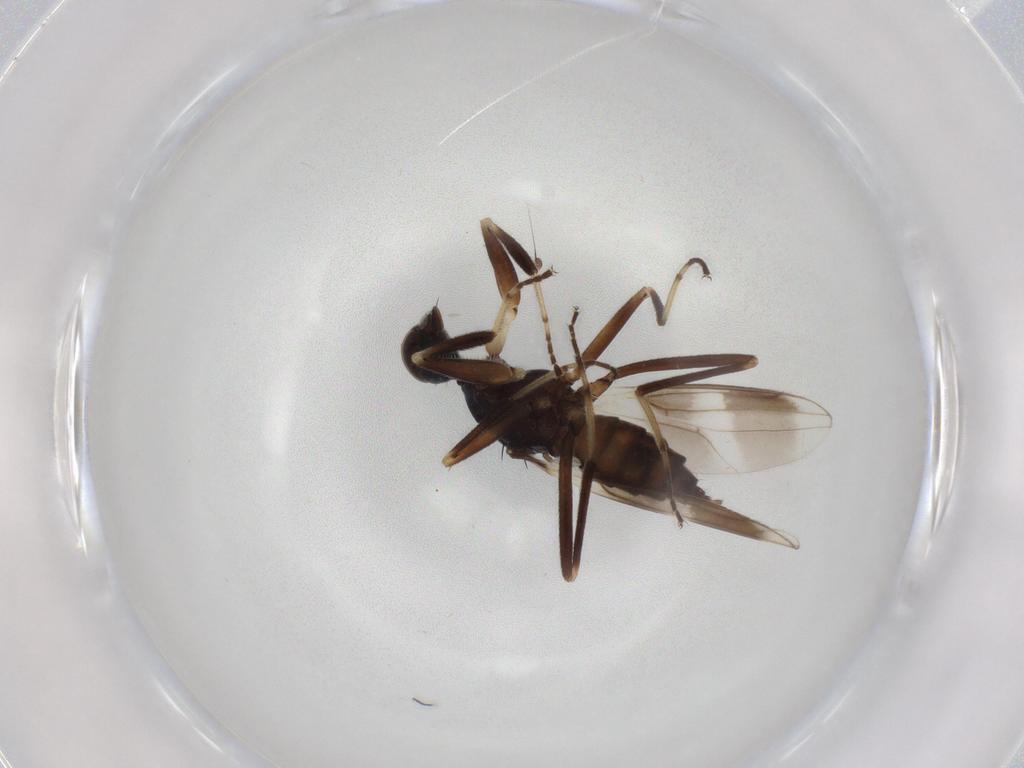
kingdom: Animalia
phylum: Arthropoda
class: Insecta
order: Diptera
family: Hybotidae
